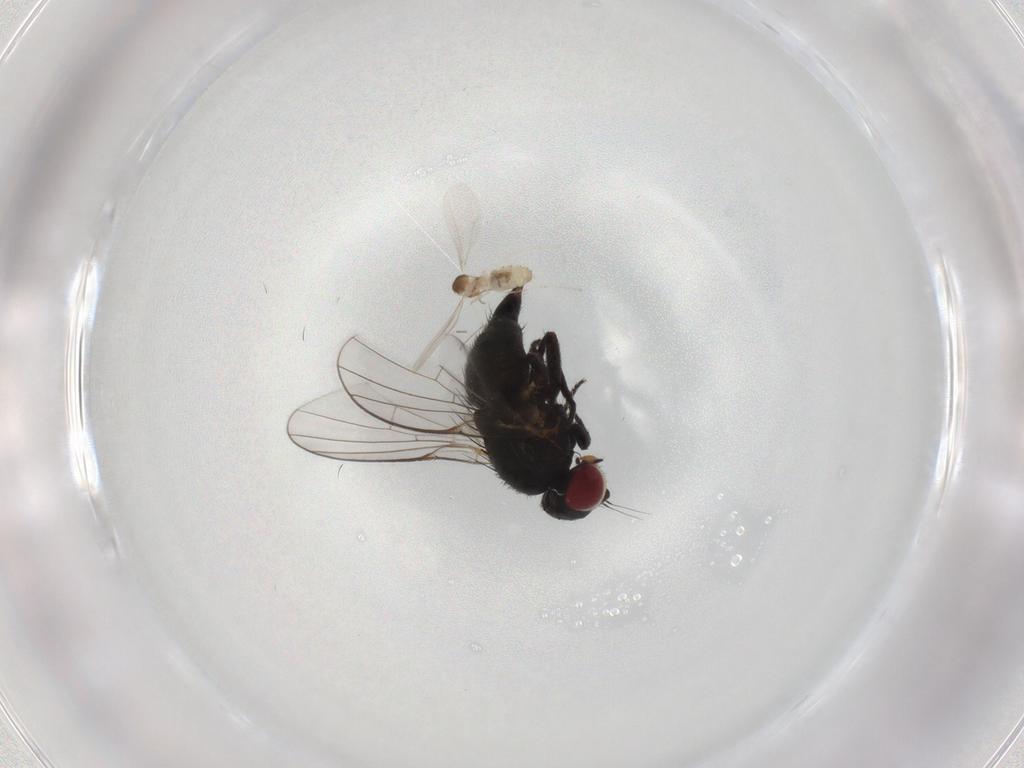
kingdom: Animalia
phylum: Arthropoda
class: Insecta
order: Diptera
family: Agromyzidae
